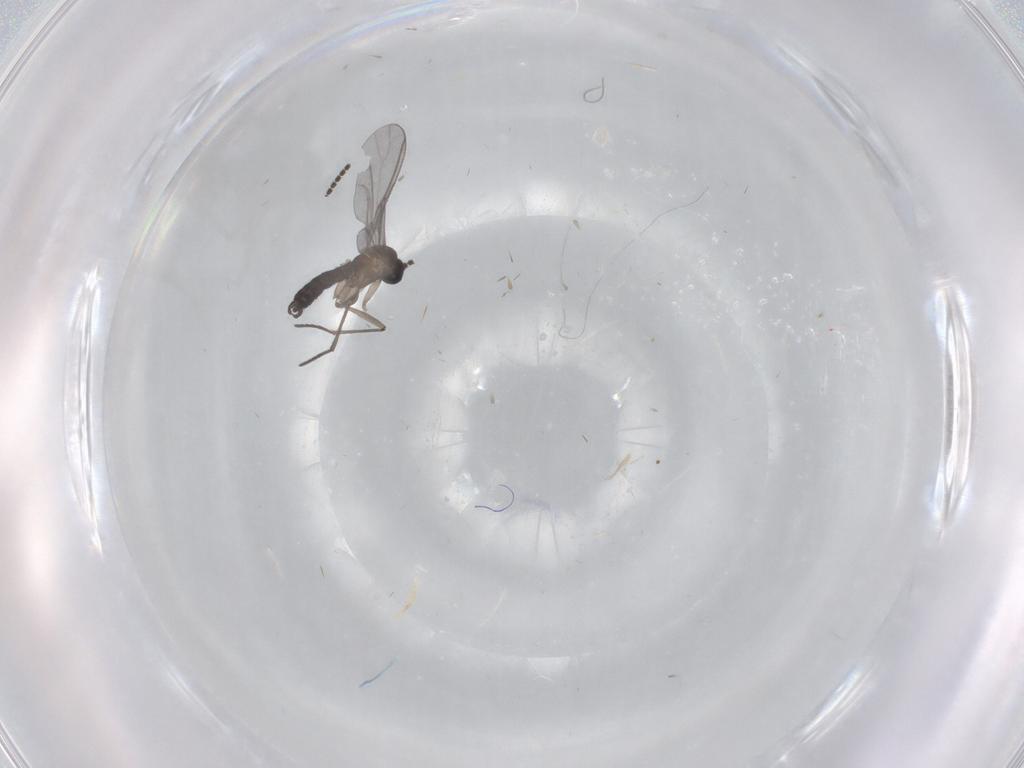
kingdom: Animalia
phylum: Arthropoda
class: Insecta
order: Diptera
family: Sciaridae
